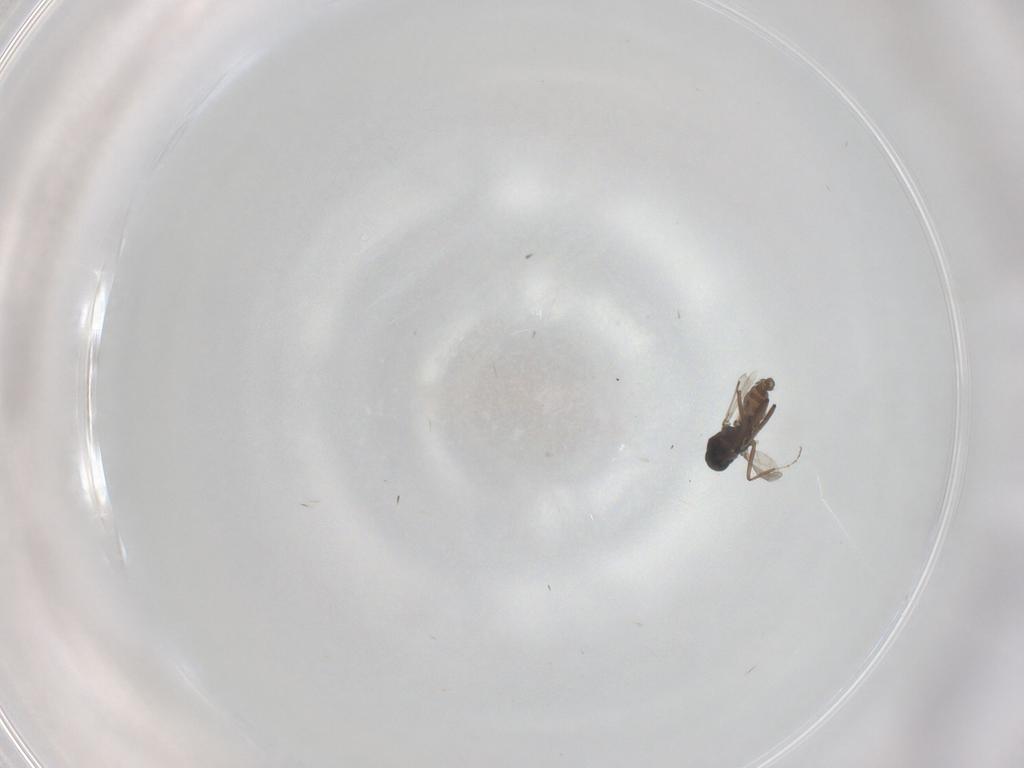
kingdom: Animalia
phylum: Arthropoda
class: Insecta
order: Diptera
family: Ceratopogonidae
